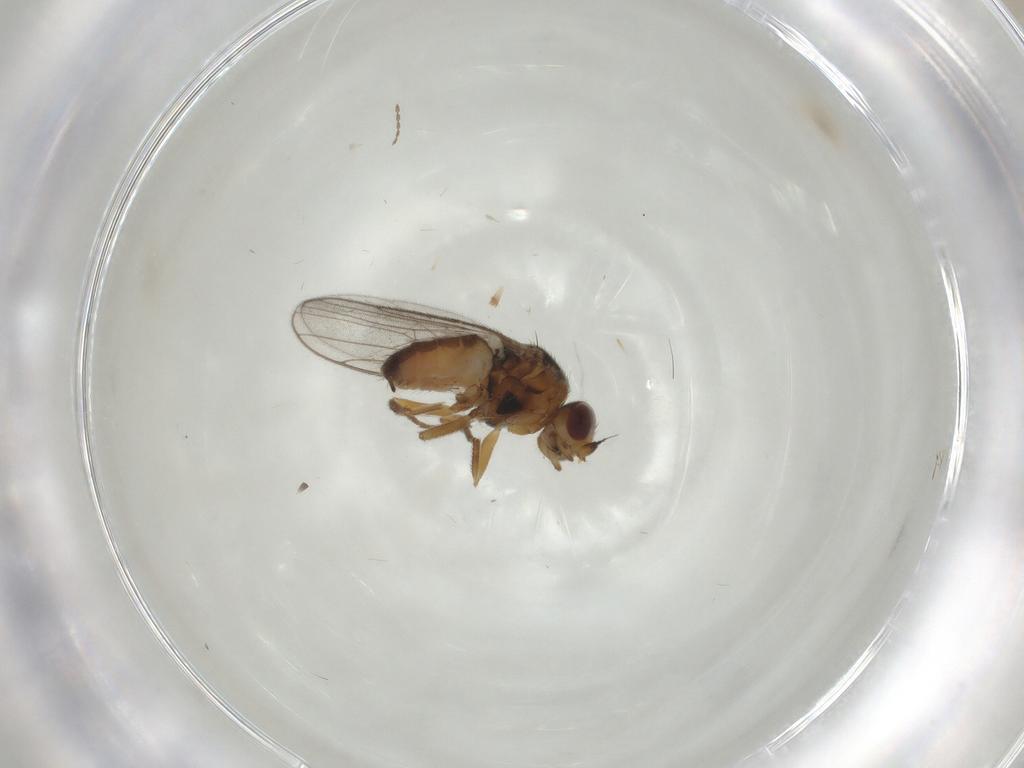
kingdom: Animalia
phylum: Arthropoda
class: Insecta
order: Diptera
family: Chloropidae
